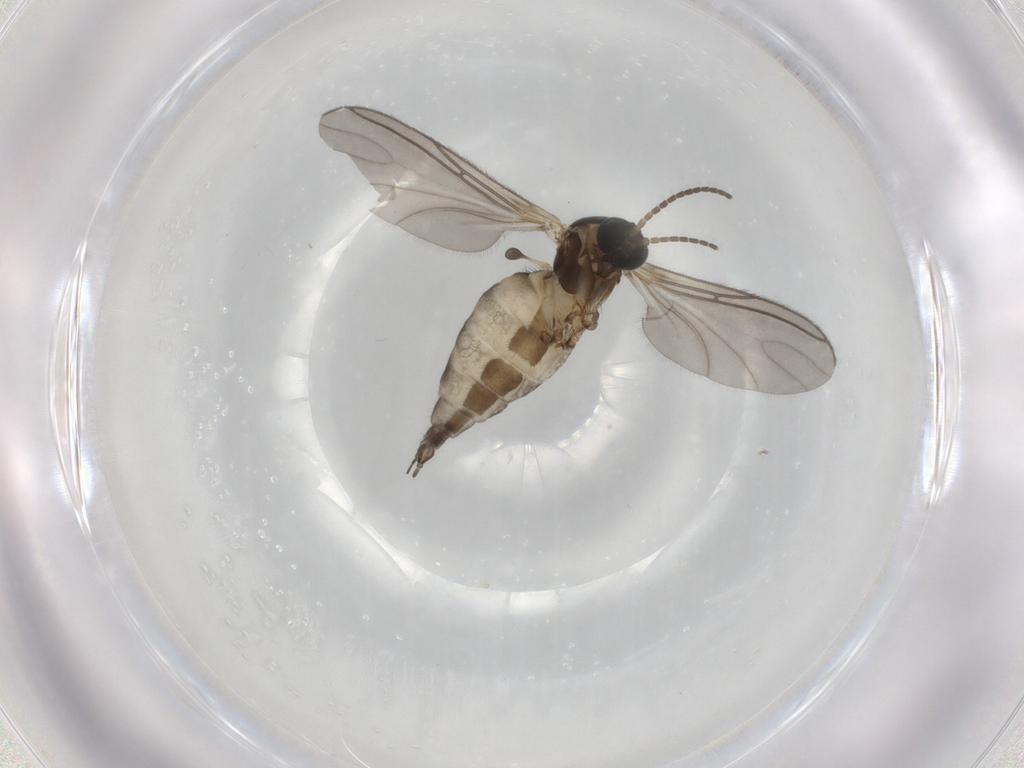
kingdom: Animalia
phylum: Arthropoda
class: Insecta
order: Diptera
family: Sciaridae
